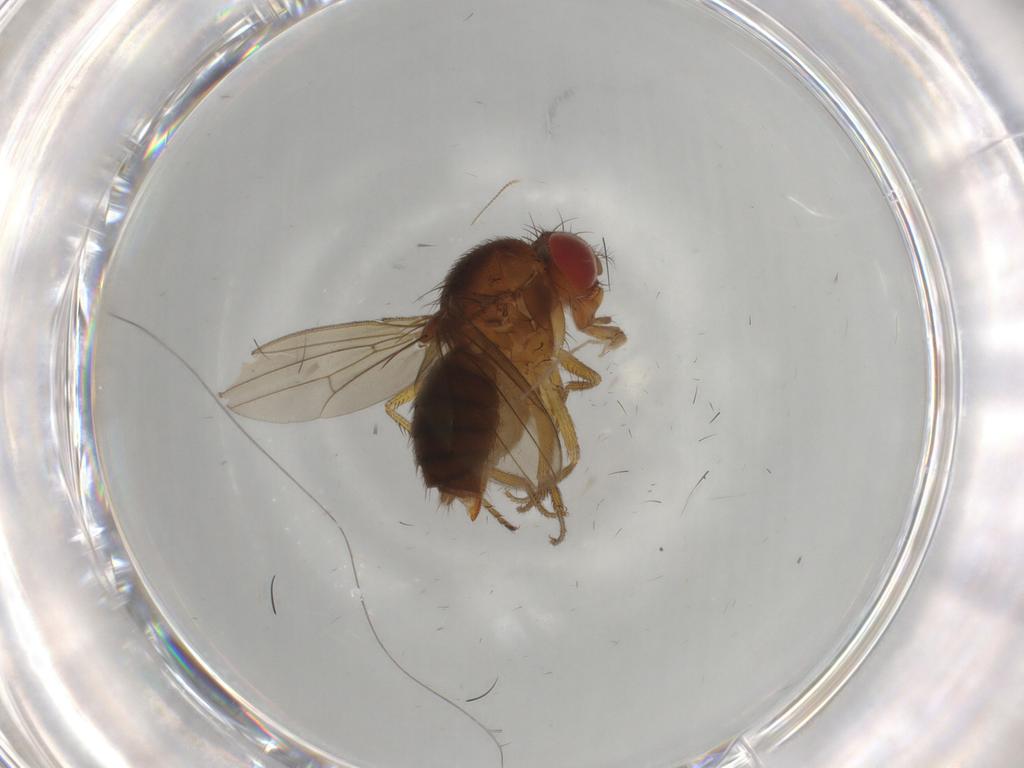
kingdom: Animalia
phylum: Arthropoda
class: Insecta
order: Diptera
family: Drosophilidae
